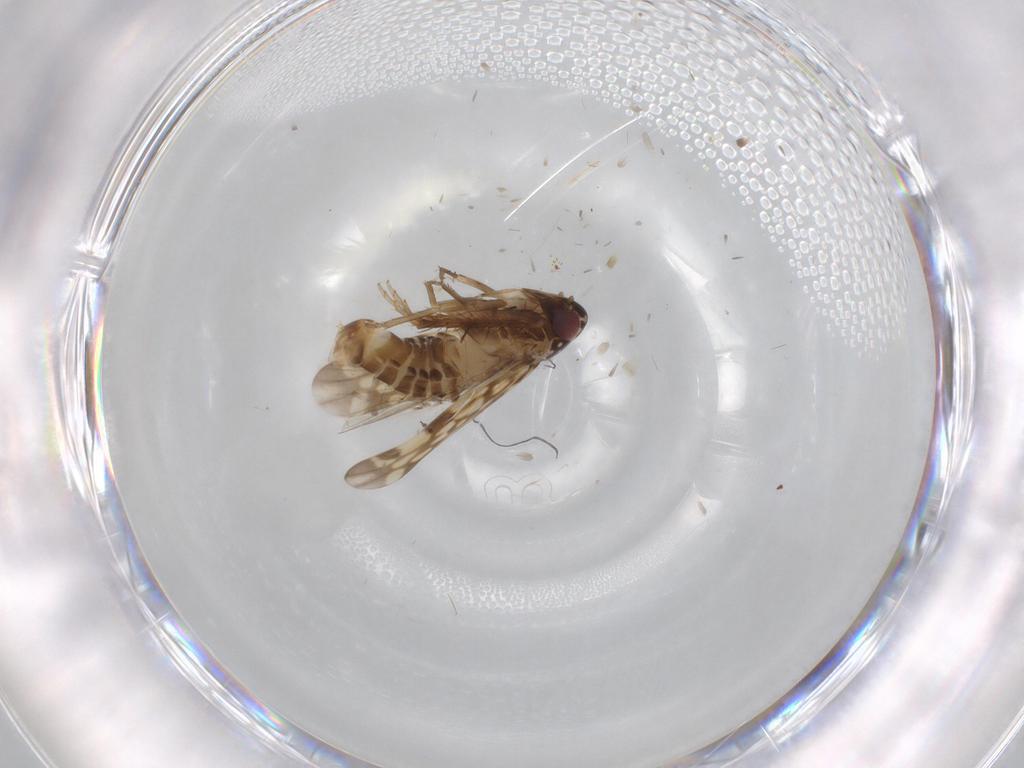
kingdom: Animalia
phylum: Arthropoda
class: Insecta
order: Hemiptera
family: Cicadellidae
